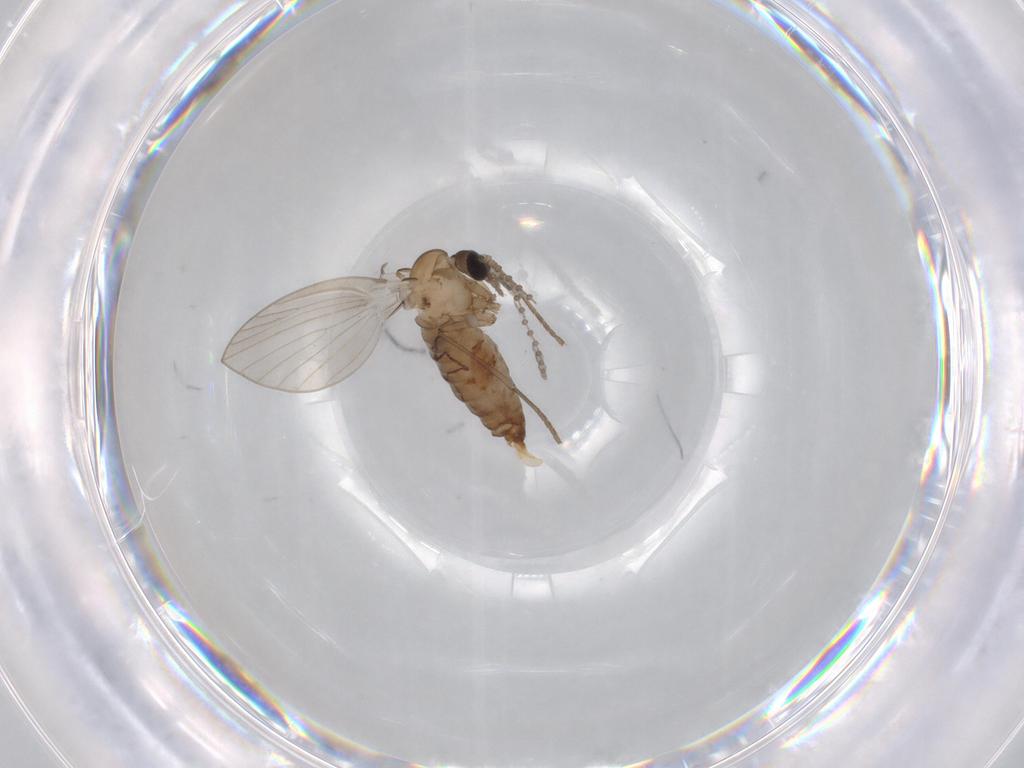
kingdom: Animalia
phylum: Arthropoda
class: Insecta
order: Diptera
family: Psychodidae
